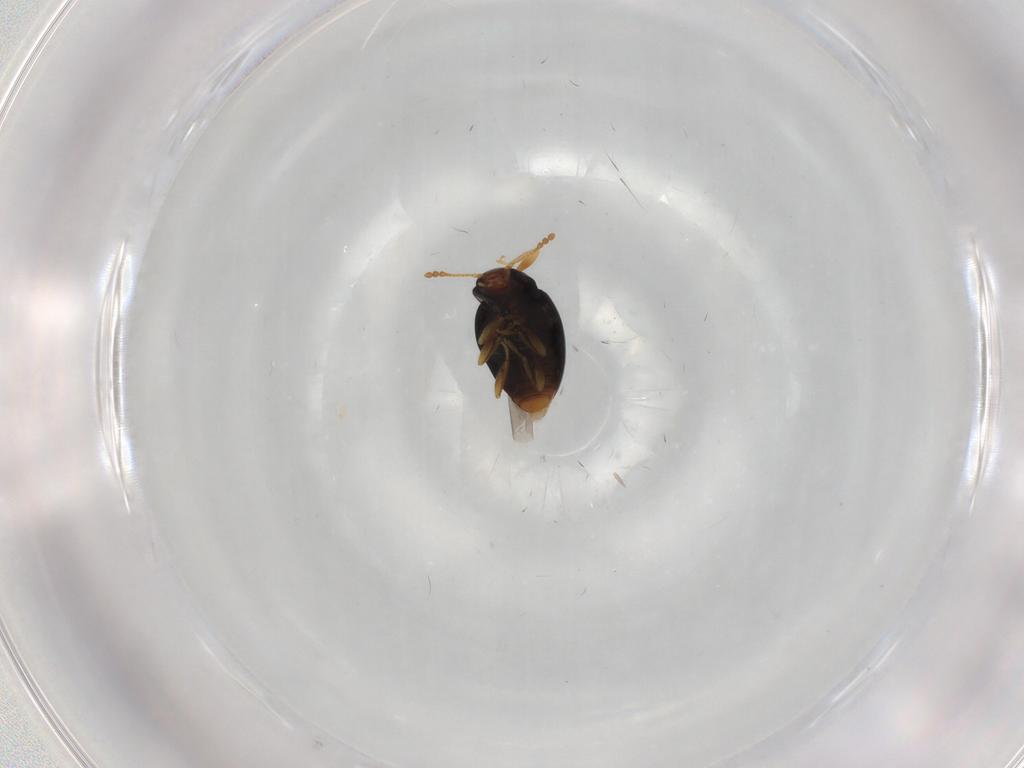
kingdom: Animalia
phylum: Arthropoda
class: Insecta
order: Coleoptera
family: Erotylidae
